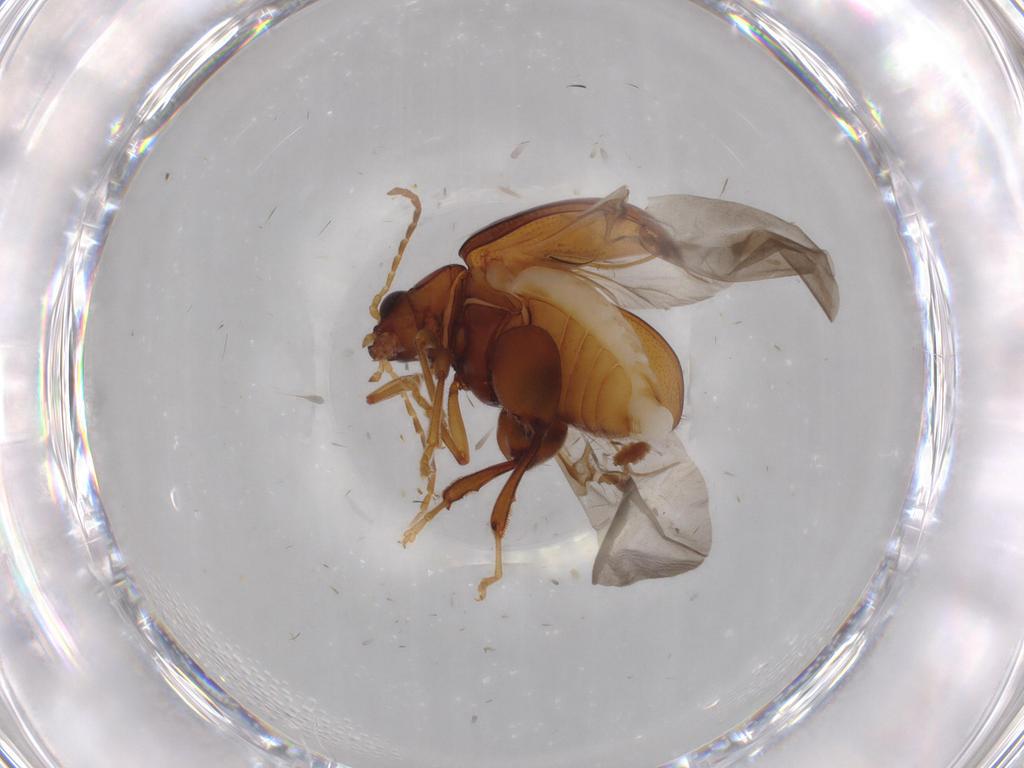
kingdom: Animalia
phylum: Arthropoda
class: Insecta
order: Coleoptera
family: Chrysomelidae
